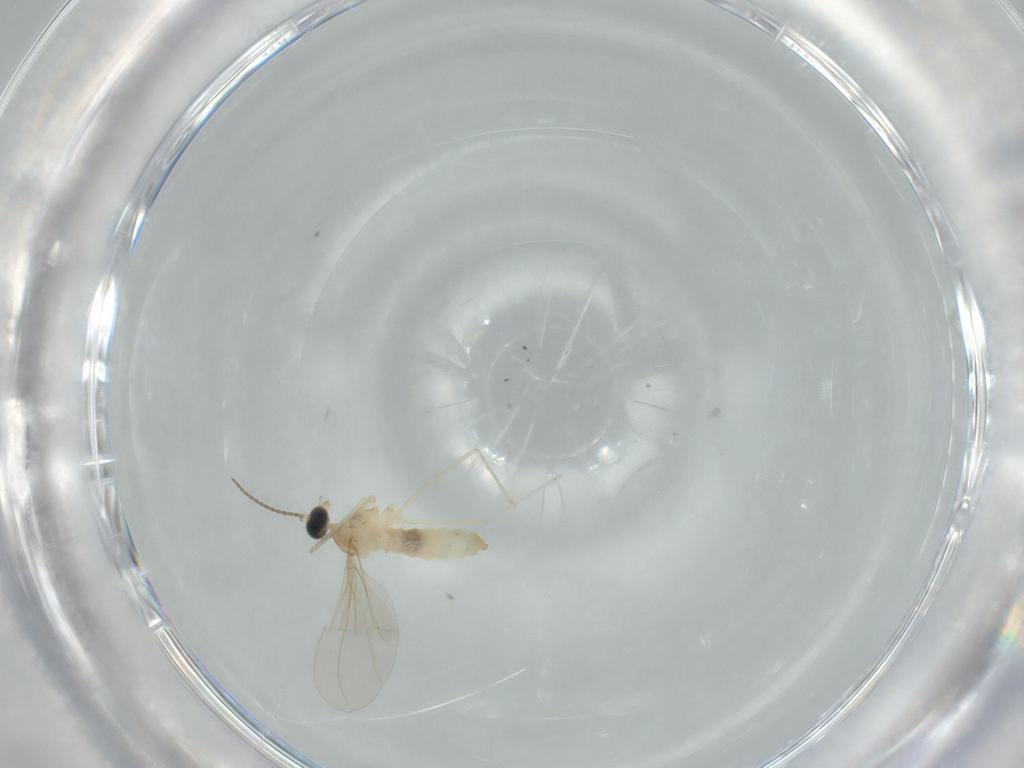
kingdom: Animalia
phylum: Arthropoda
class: Insecta
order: Diptera
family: Cecidomyiidae
